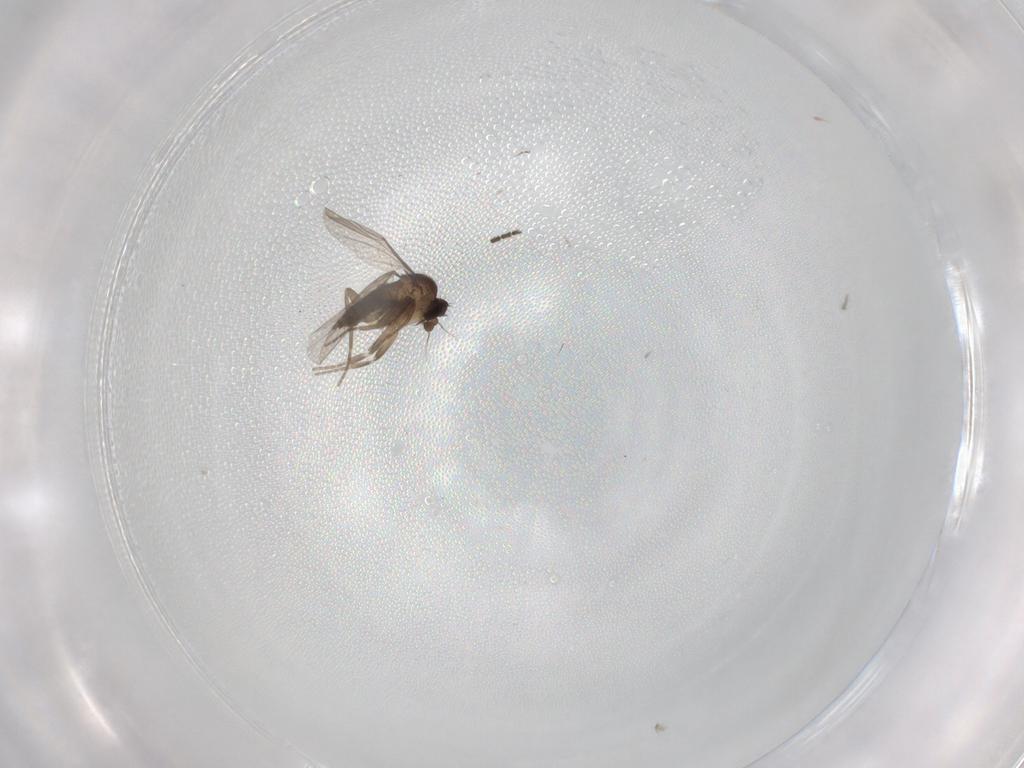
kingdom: Animalia
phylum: Arthropoda
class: Insecta
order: Diptera
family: Phoridae
